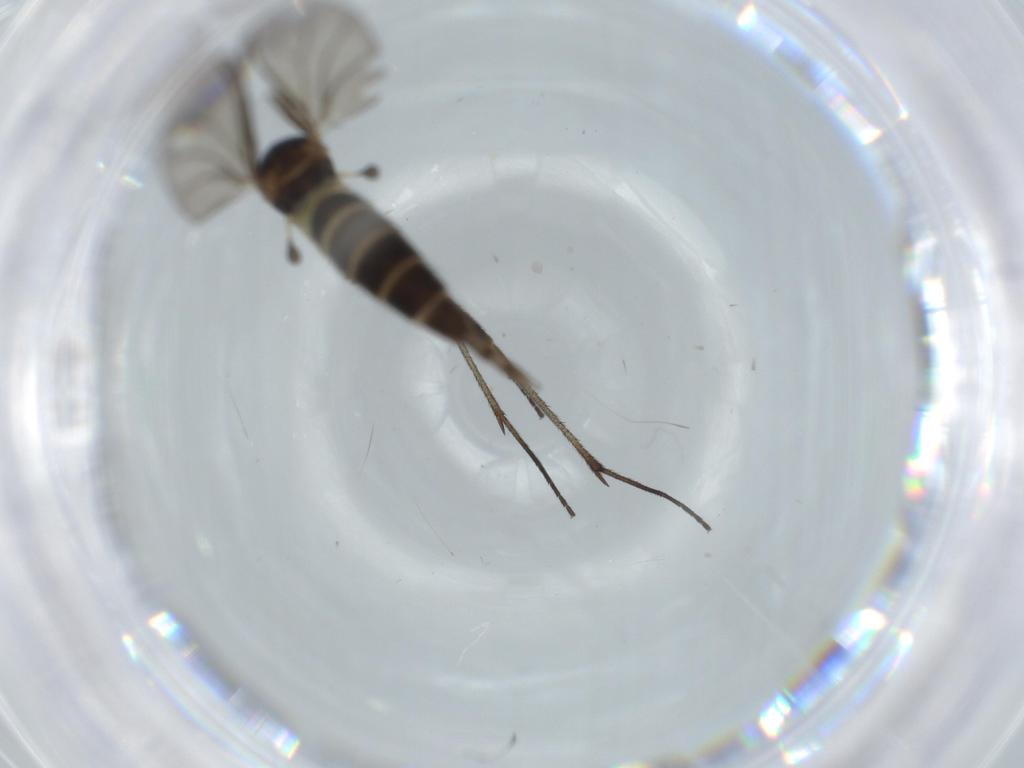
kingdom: Animalia
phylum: Arthropoda
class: Insecta
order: Diptera
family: Sciaridae
